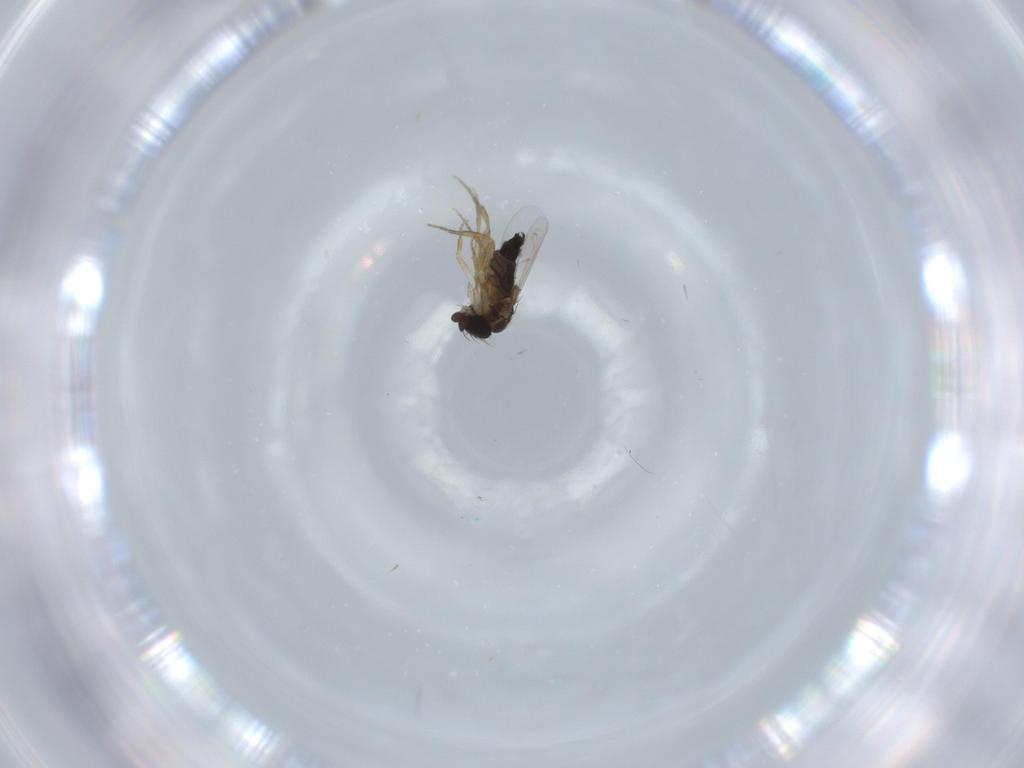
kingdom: Animalia
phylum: Arthropoda
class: Insecta
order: Diptera
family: Phoridae
